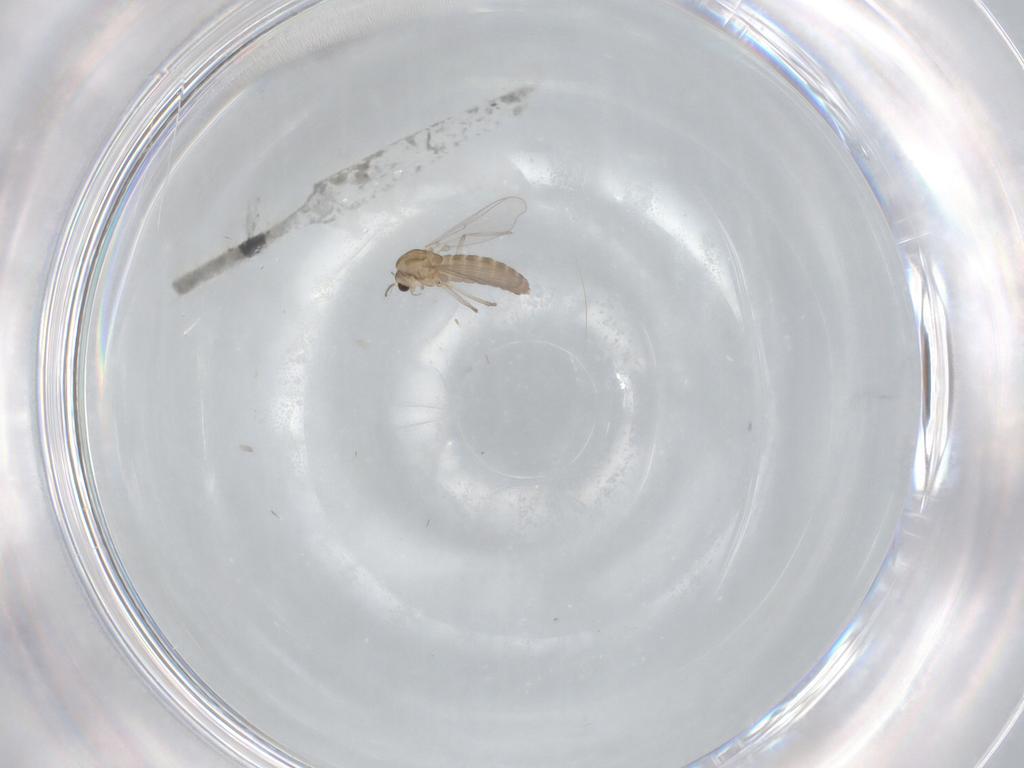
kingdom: Animalia
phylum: Arthropoda
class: Insecta
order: Diptera
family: Chironomidae
